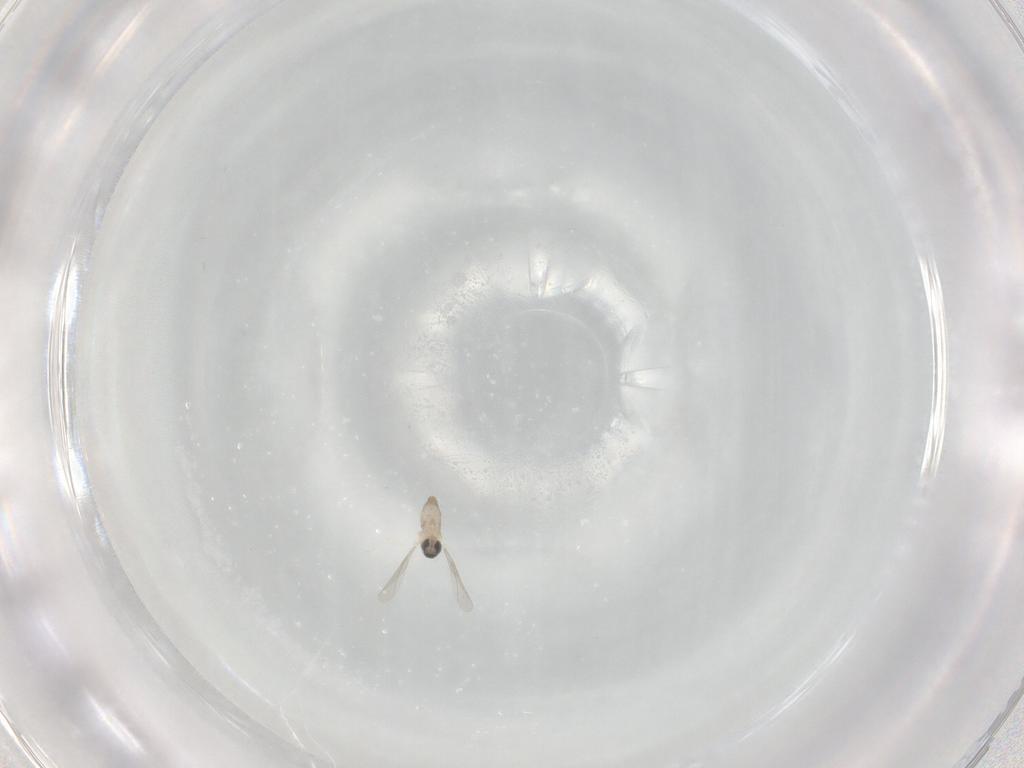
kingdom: Animalia
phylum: Arthropoda
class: Insecta
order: Diptera
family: Cecidomyiidae
